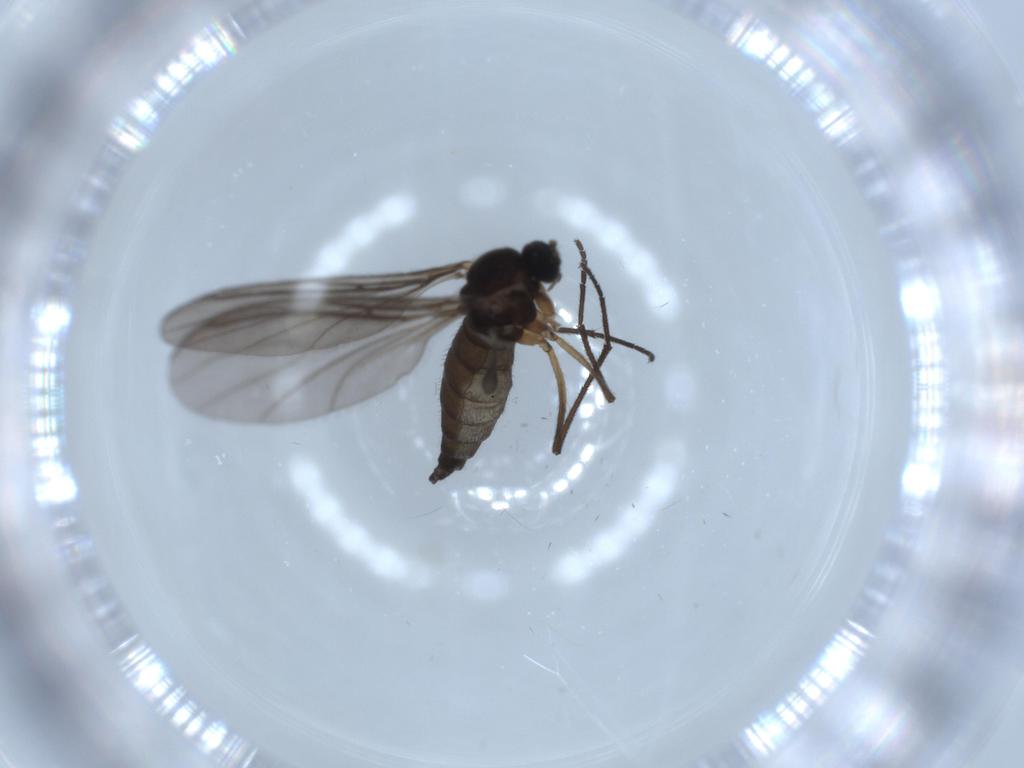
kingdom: Animalia
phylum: Arthropoda
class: Insecta
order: Diptera
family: Sciaridae
